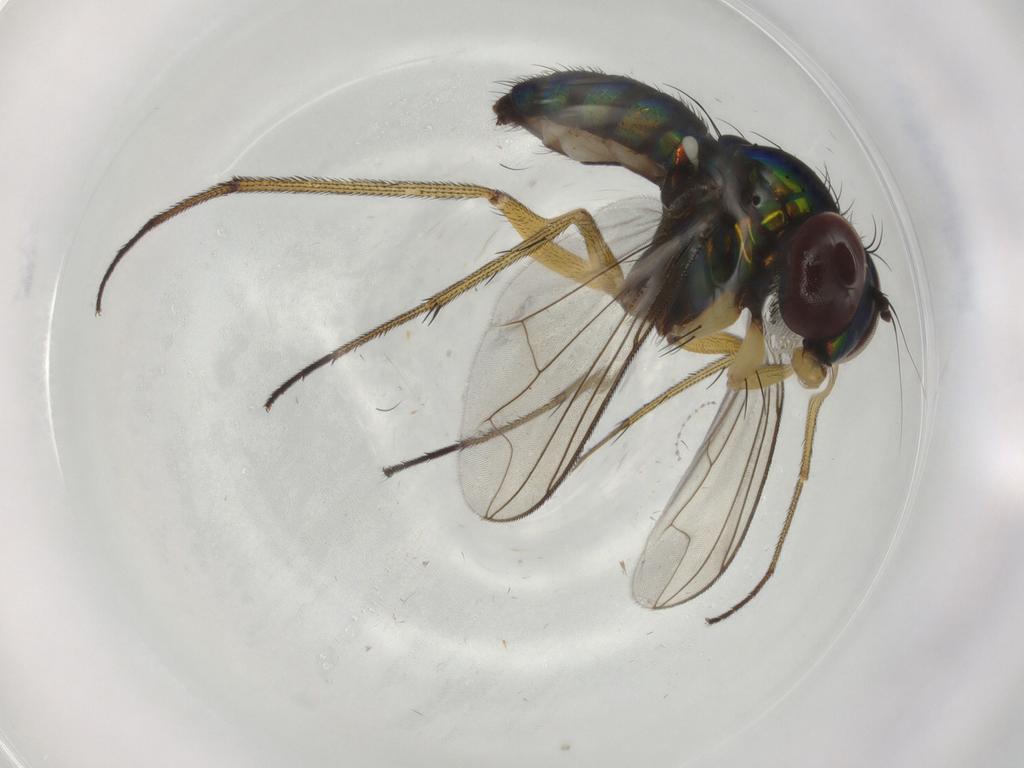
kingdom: Animalia
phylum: Arthropoda
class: Insecta
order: Diptera
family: Dolichopodidae
